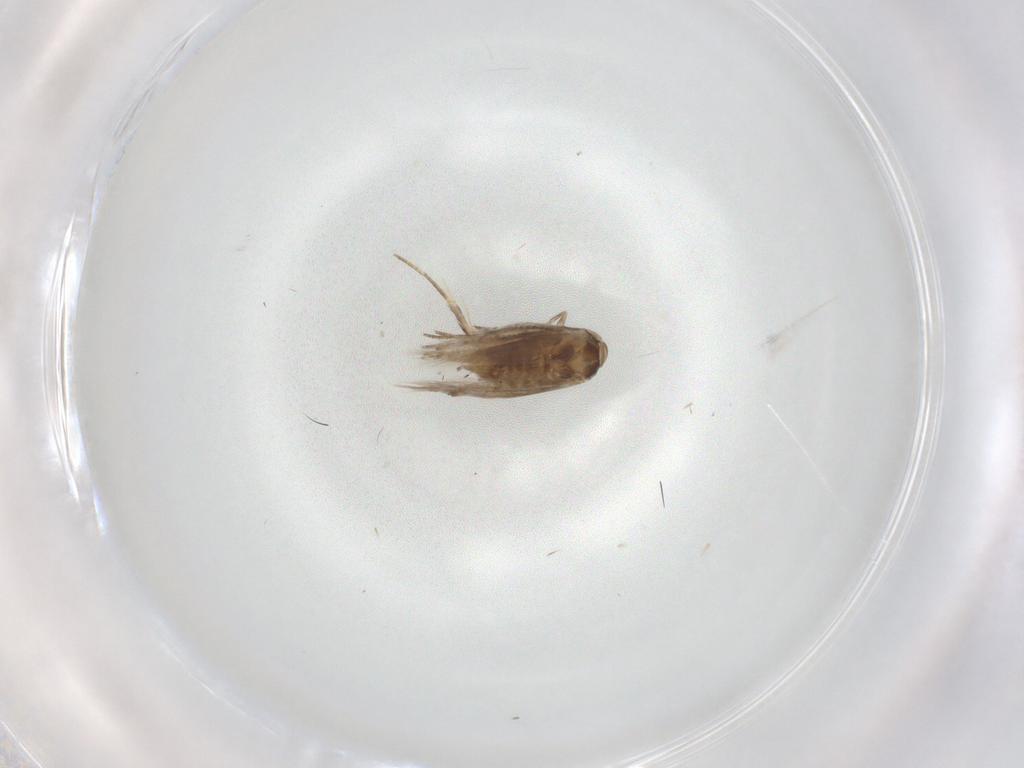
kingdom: Animalia
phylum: Arthropoda
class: Insecta
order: Lepidoptera
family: Nymphalidae
